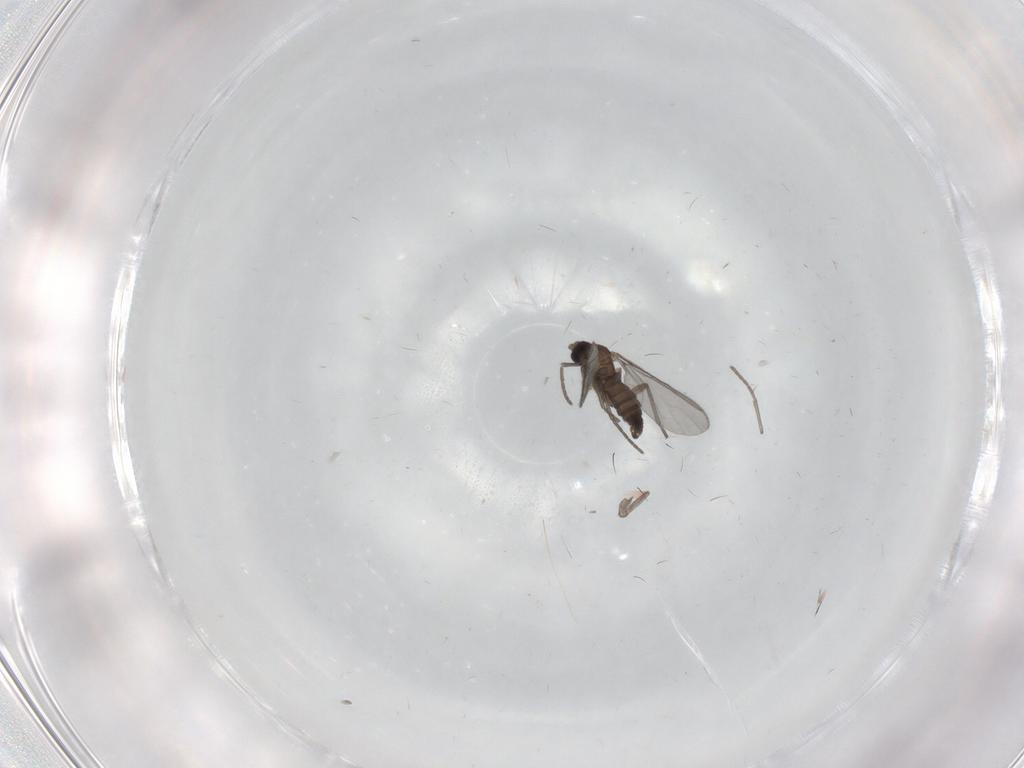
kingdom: Animalia
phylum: Arthropoda
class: Insecta
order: Diptera
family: Sciaridae
